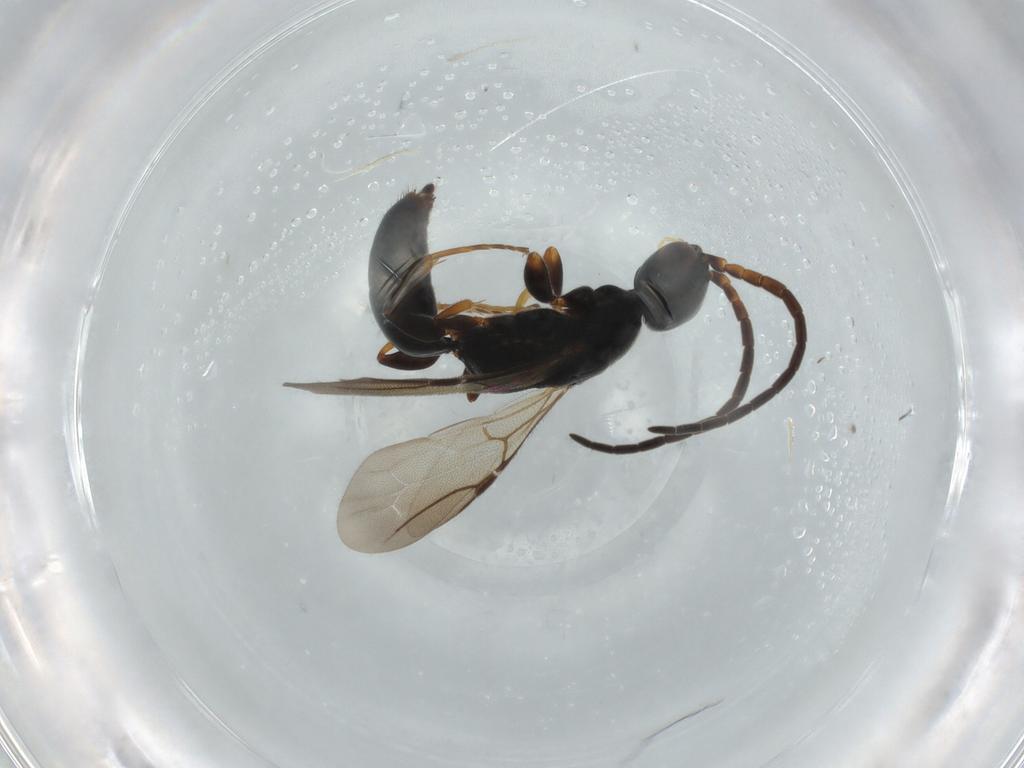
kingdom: Animalia
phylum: Arthropoda
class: Insecta
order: Hymenoptera
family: Bethylidae
